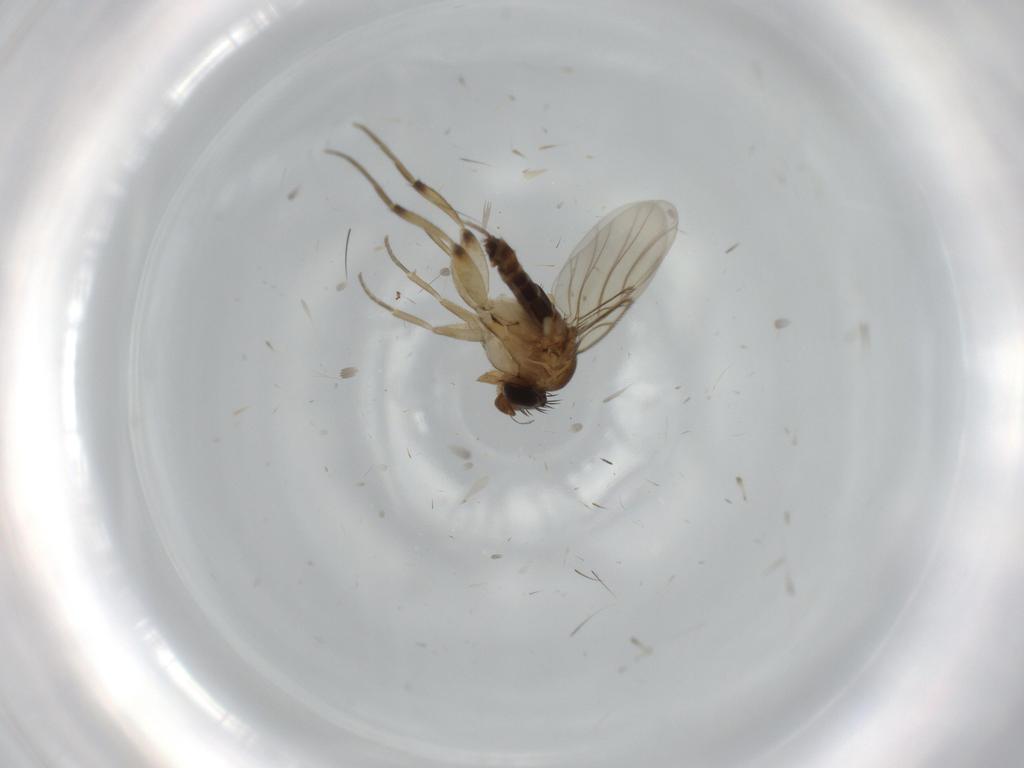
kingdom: Animalia
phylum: Arthropoda
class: Insecta
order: Diptera
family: Phoridae
